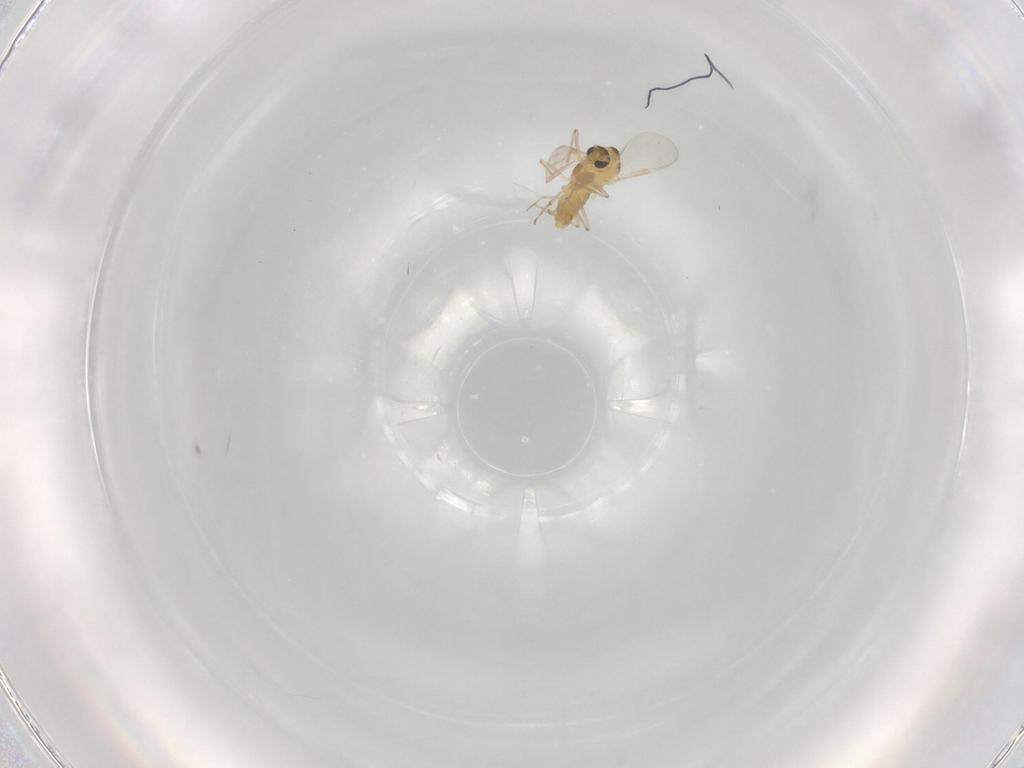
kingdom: Animalia
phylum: Arthropoda
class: Insecta
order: Diptera
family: Chironomidae
